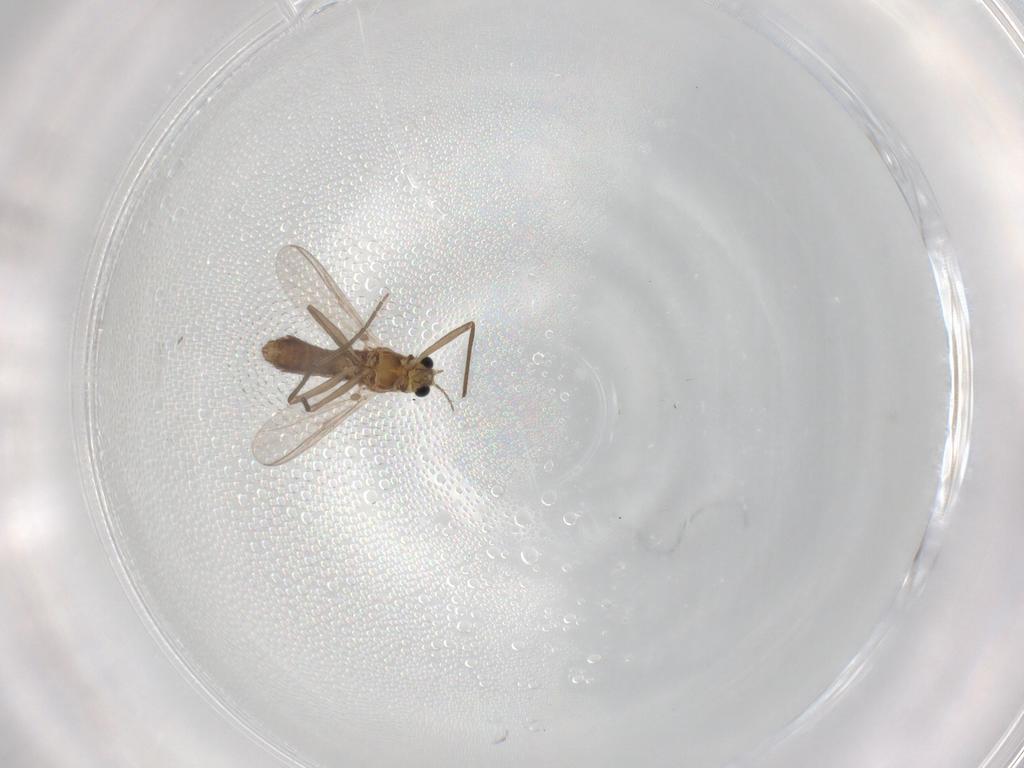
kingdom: Animalia
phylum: Arthropoda
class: Insecta
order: Diptera
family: Chironomidae
